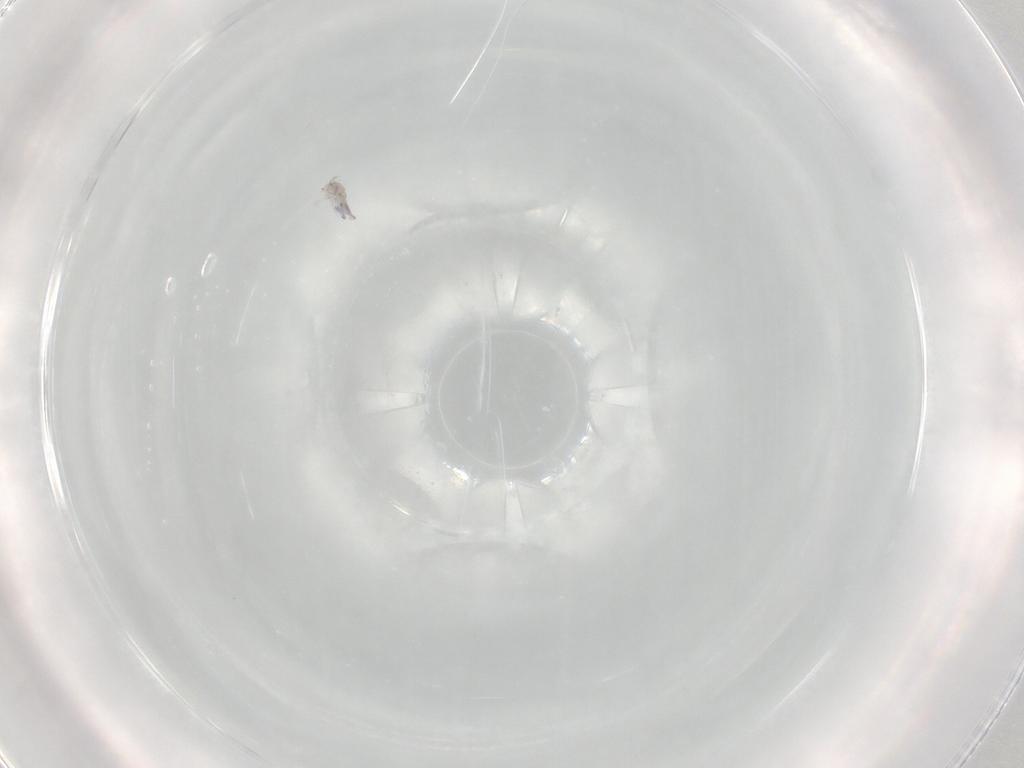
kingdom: Animalia
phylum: Arthropoda
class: Collembola
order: Entomobryomorpha
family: Entomobryidae
